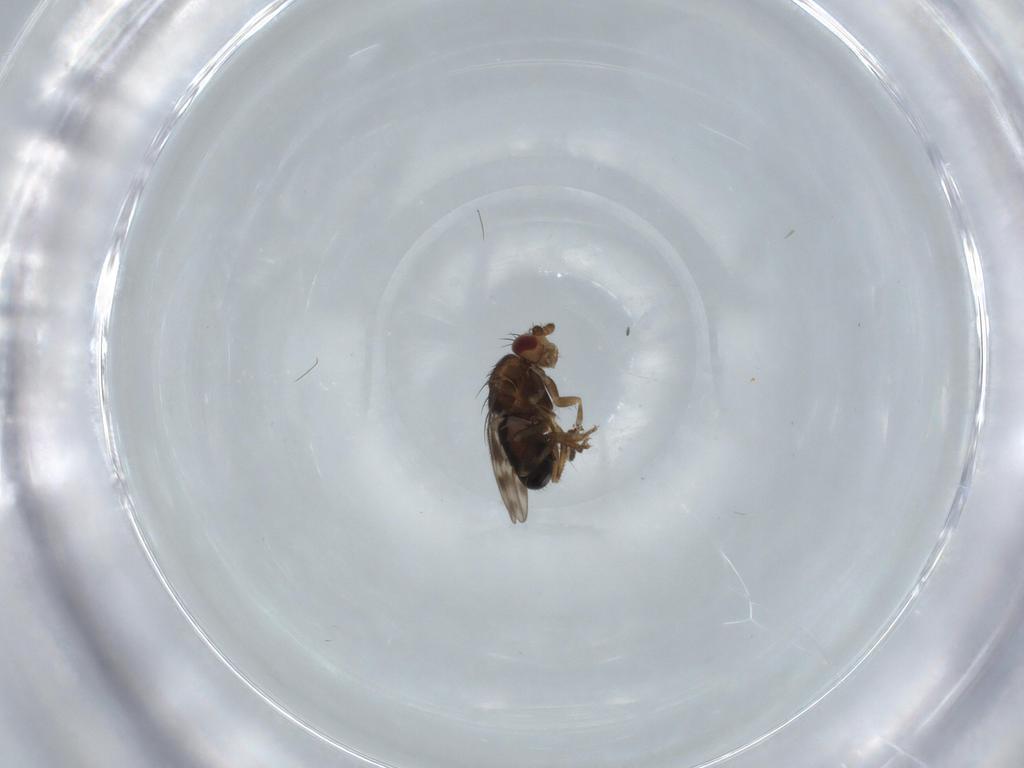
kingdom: Animalia
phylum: Arthropoda
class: Insecta
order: Diptera
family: Sphaeroceridae
